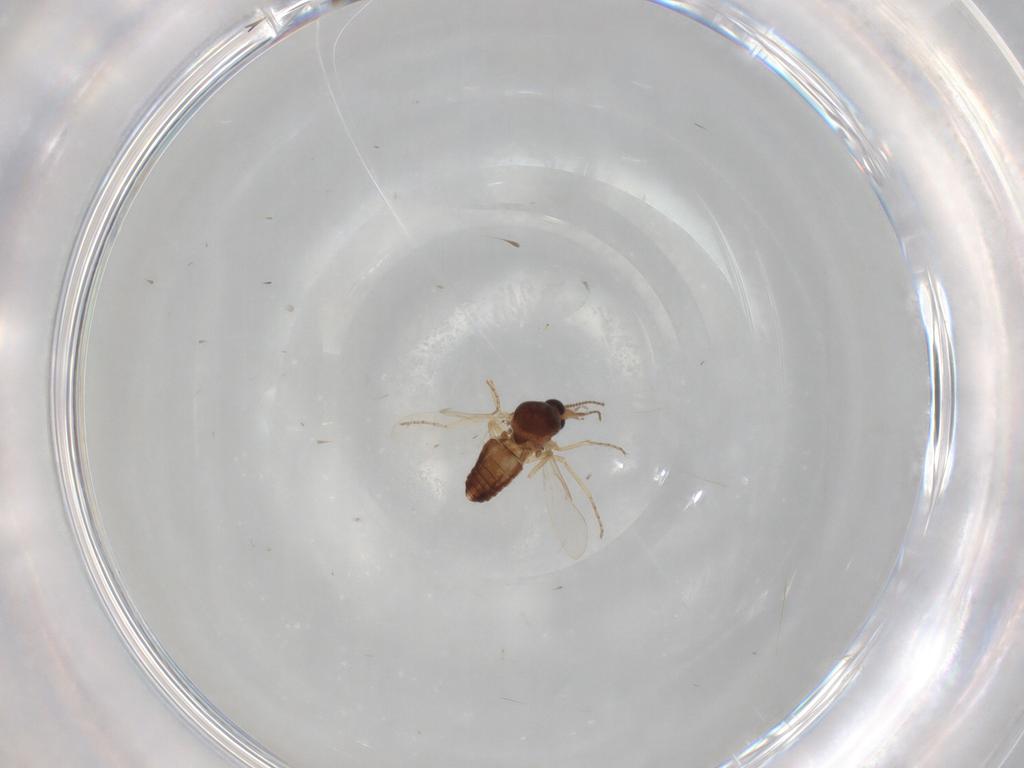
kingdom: Animalia
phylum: Arthropoda
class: Insecta
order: Diptera
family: Ceratopogonidae
